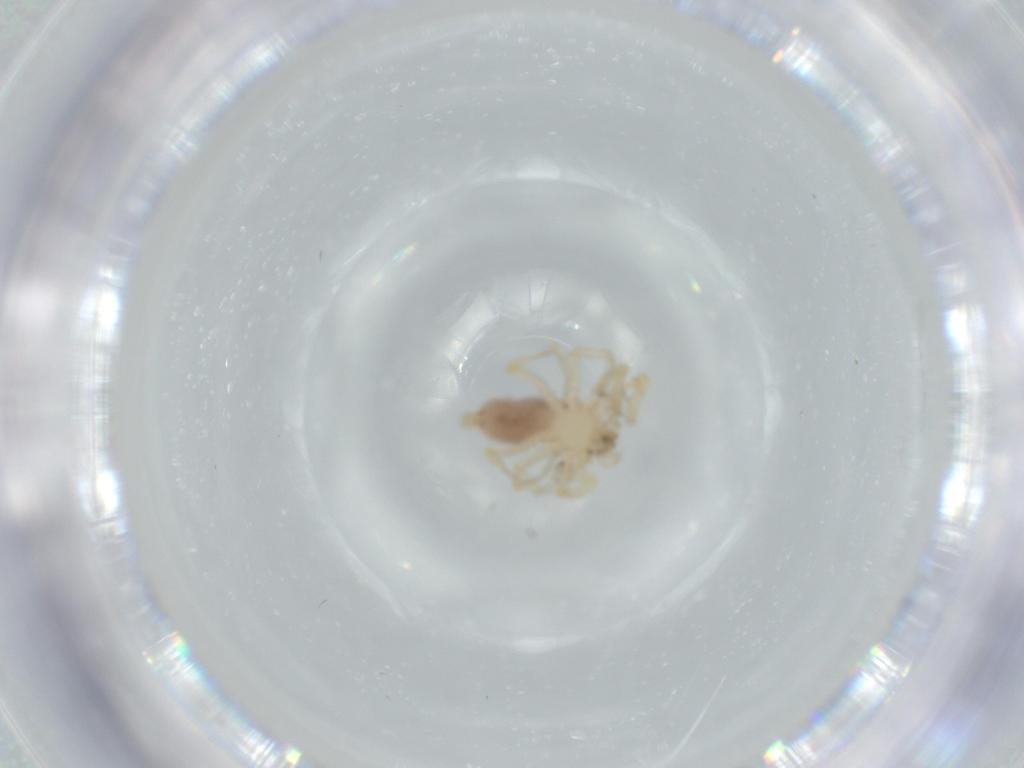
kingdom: Animalia
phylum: Arthropoda
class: Arachnida
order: Araneae
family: Oonopidae
